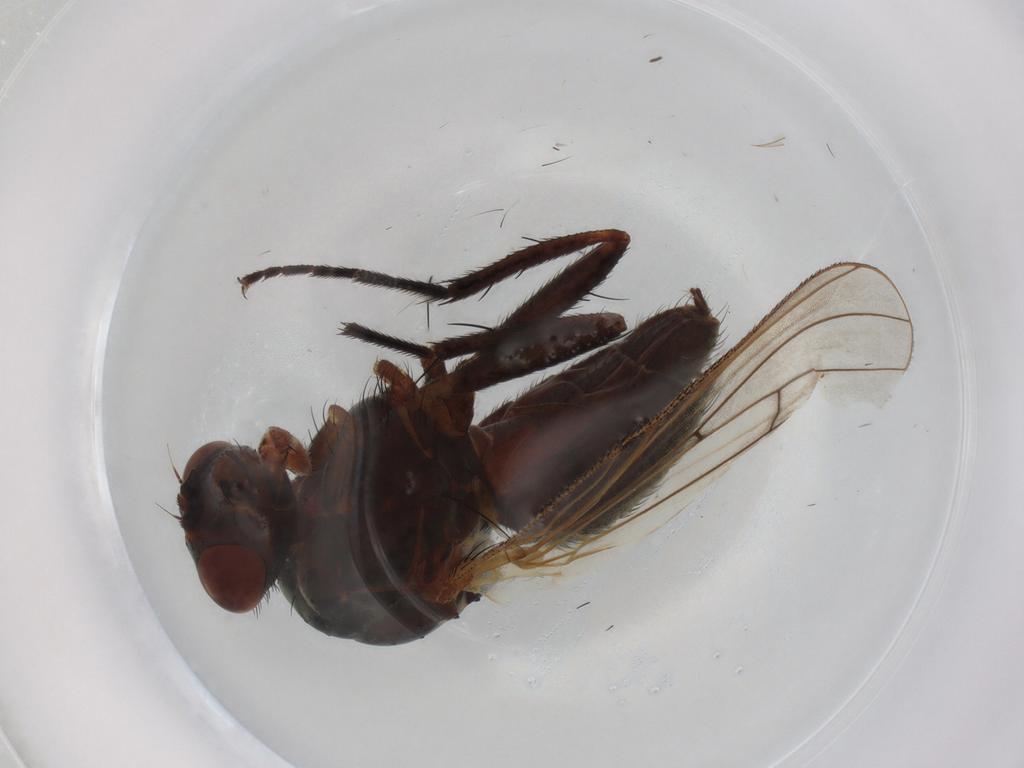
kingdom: Animalia
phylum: Arthropoda
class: Insecta
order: Diptera
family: Anthomyiidae
